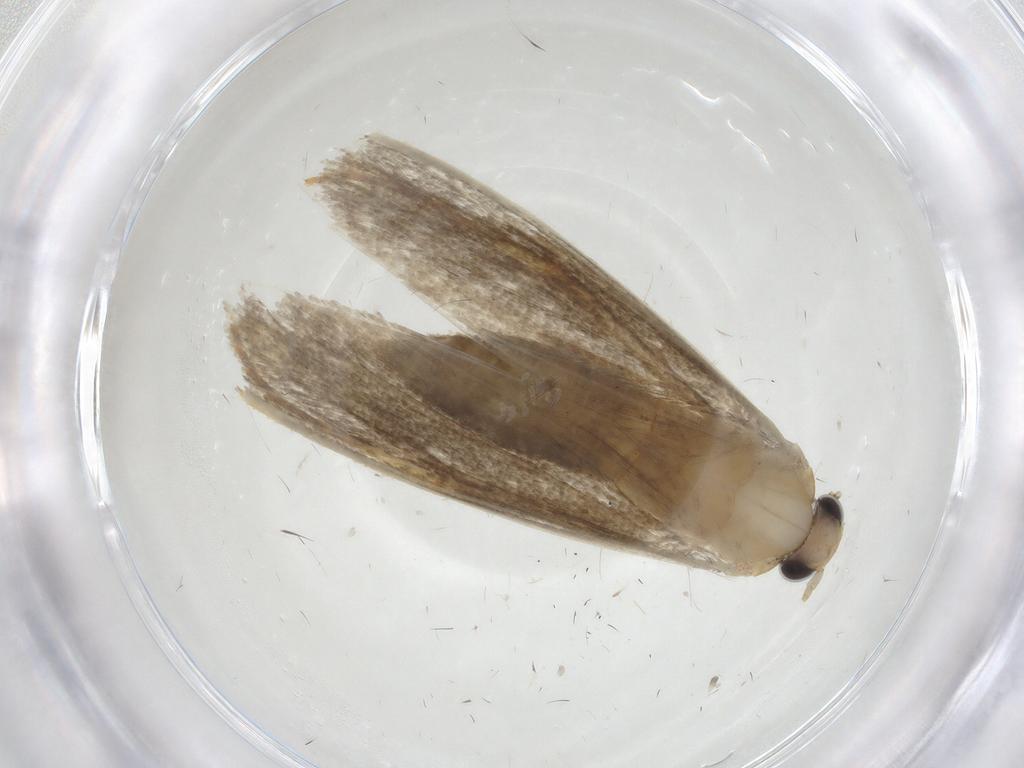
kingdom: Animalia
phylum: Arthropoda
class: Insecta
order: Lepidoptera
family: Tineidae
